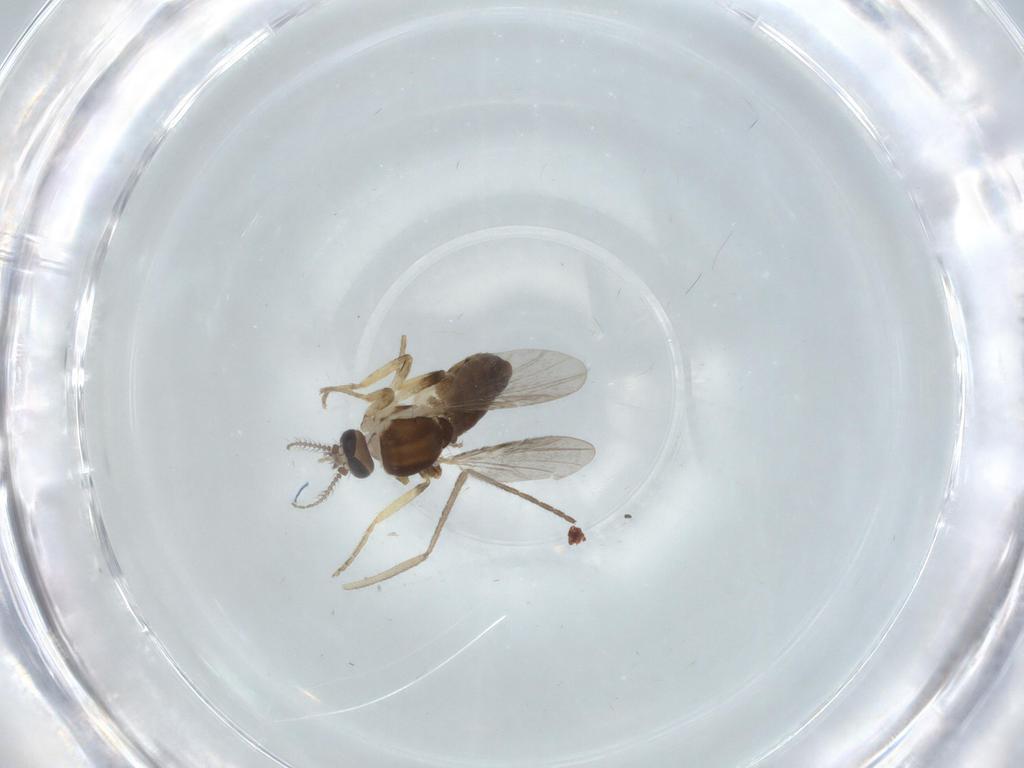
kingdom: Animalia
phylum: Arthropoda
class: Insecta
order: Diptera
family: Ceratopogonidae
